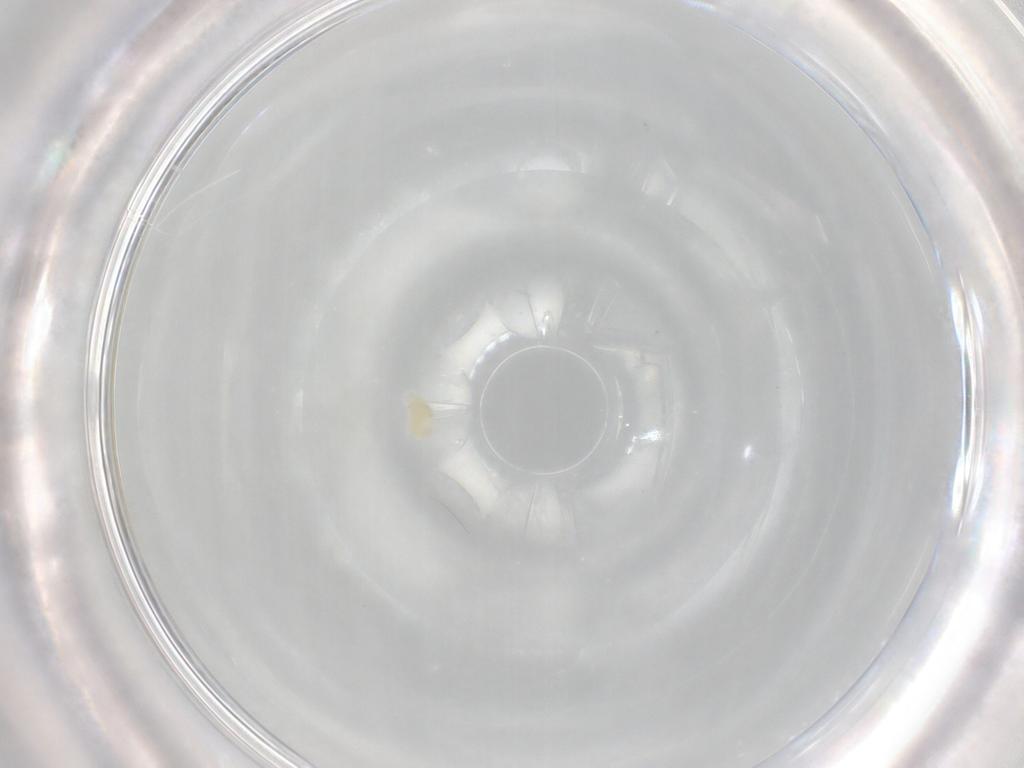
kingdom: Animalia
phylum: Arthropoda
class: Arachnida
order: Trombidiformes
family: Eupodidae
